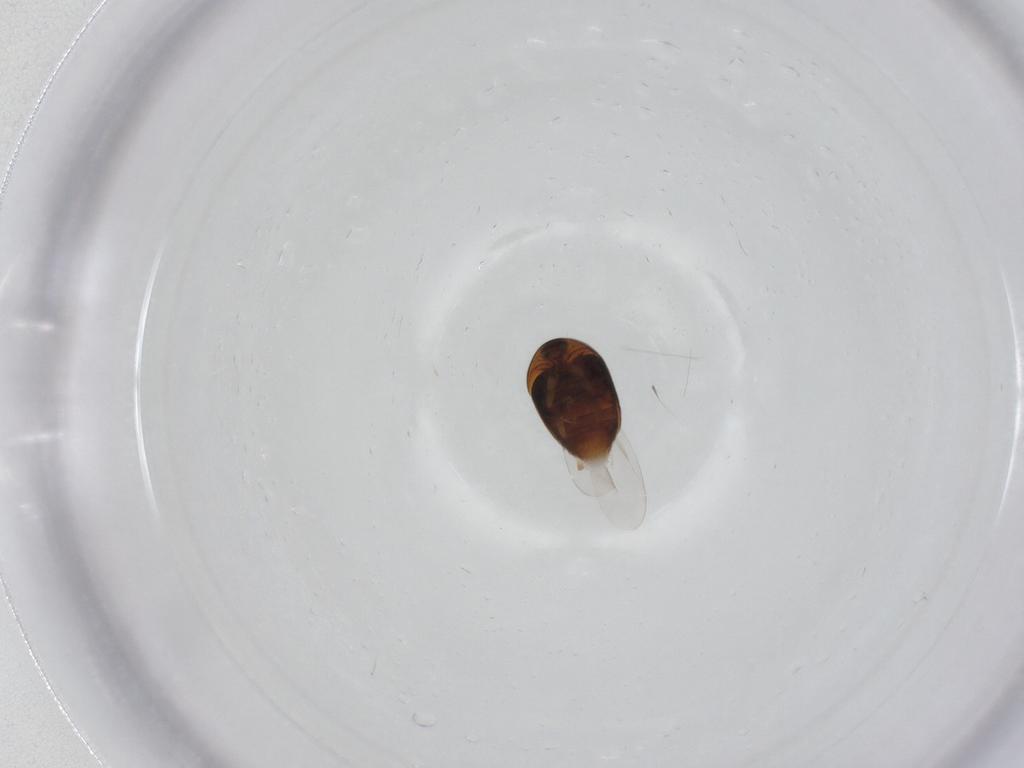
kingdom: Animalia
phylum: Arthropoda
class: Insecta
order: Coleoptera
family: Corylophidae
